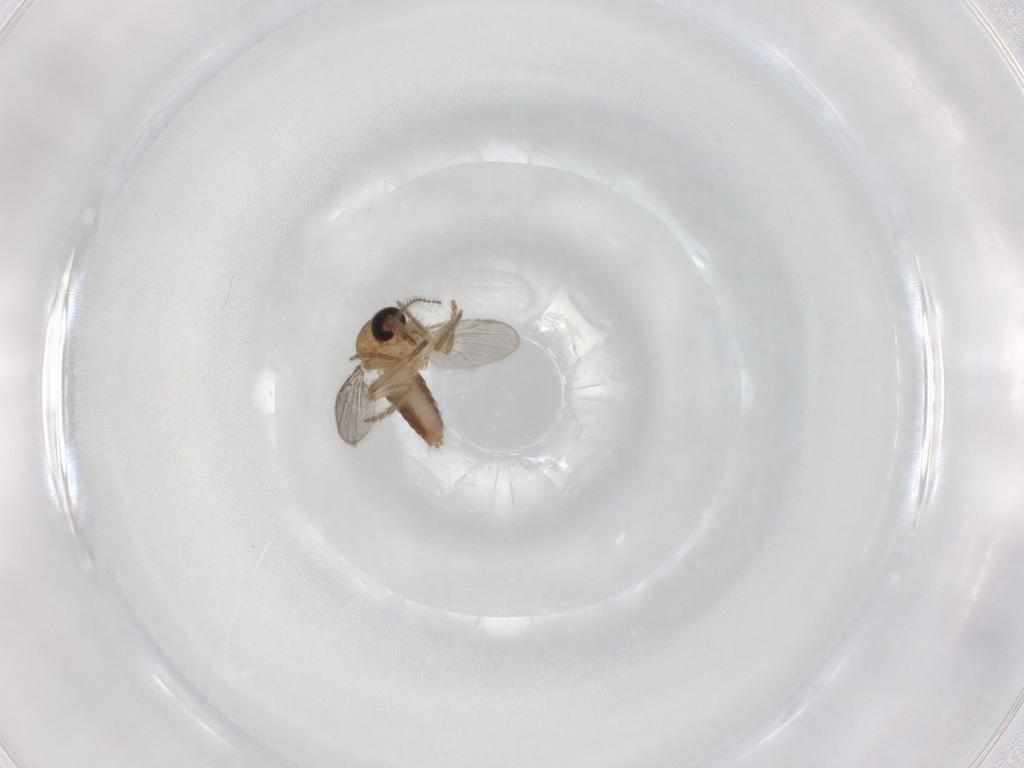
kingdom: Animalia
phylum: Arthropoda
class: Insecta
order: Diptera
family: Ceratopogonidae
